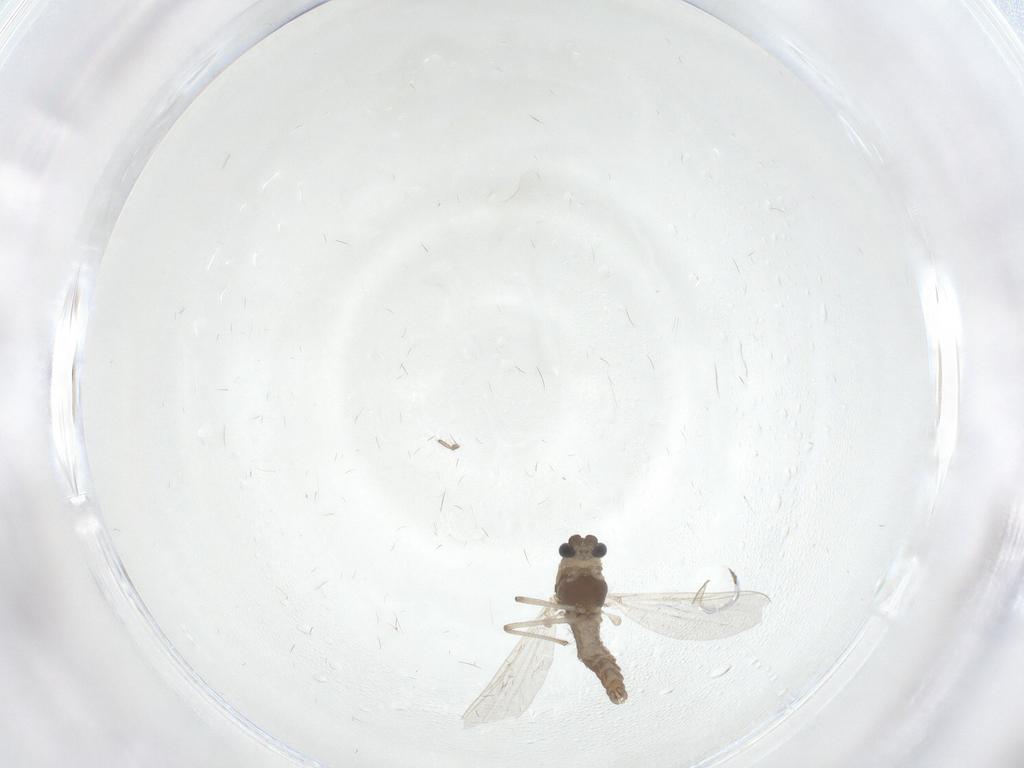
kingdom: Animalia
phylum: Arthropoda
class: Insecta
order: Diptera
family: Chironomidae
